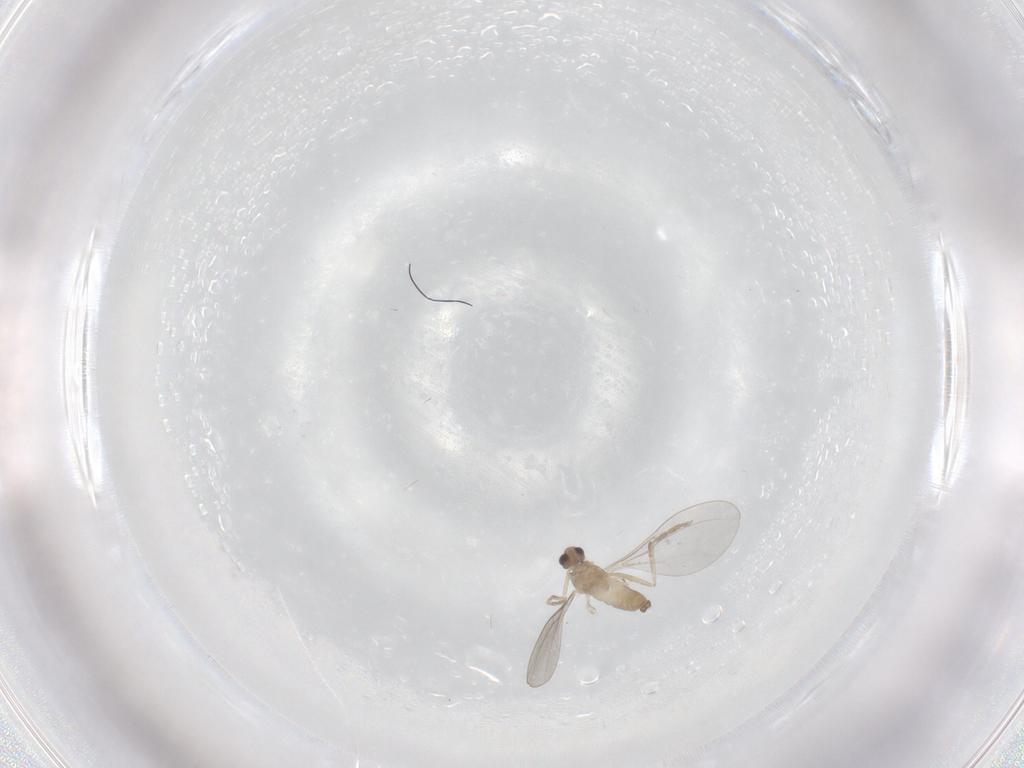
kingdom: Animalia
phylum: Arthropoda
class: Insecta
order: Diptera
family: Cecidomyiidae
